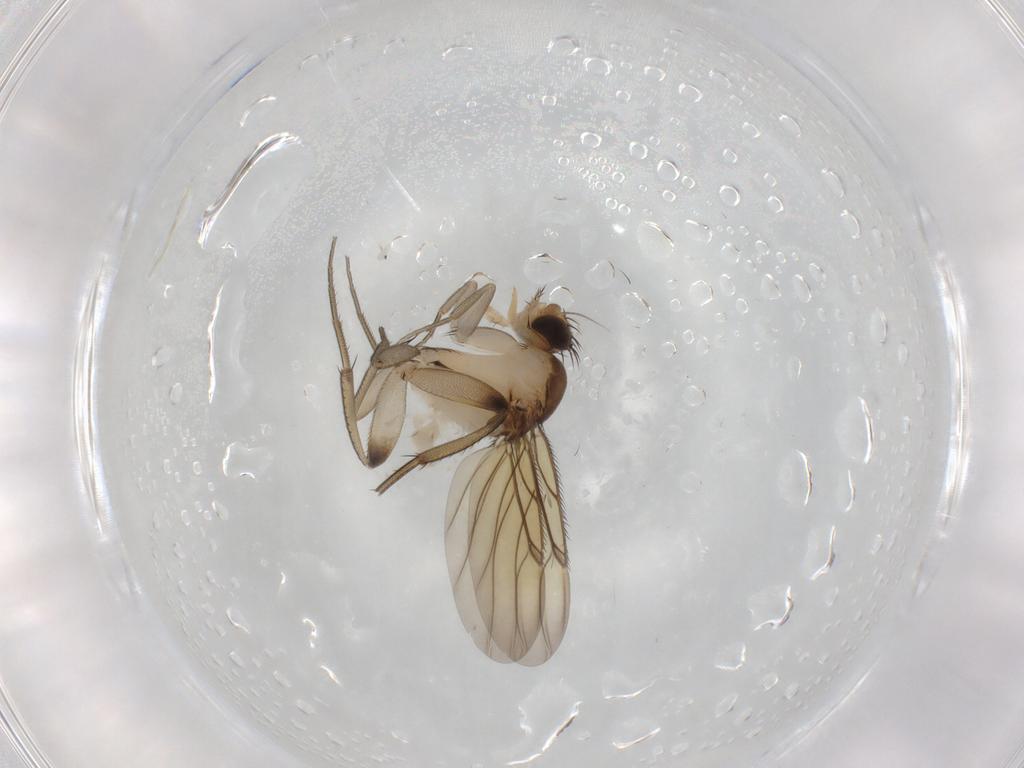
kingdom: Animalia
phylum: Arthropoda
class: Insecta
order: Diptera
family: Phoridae
